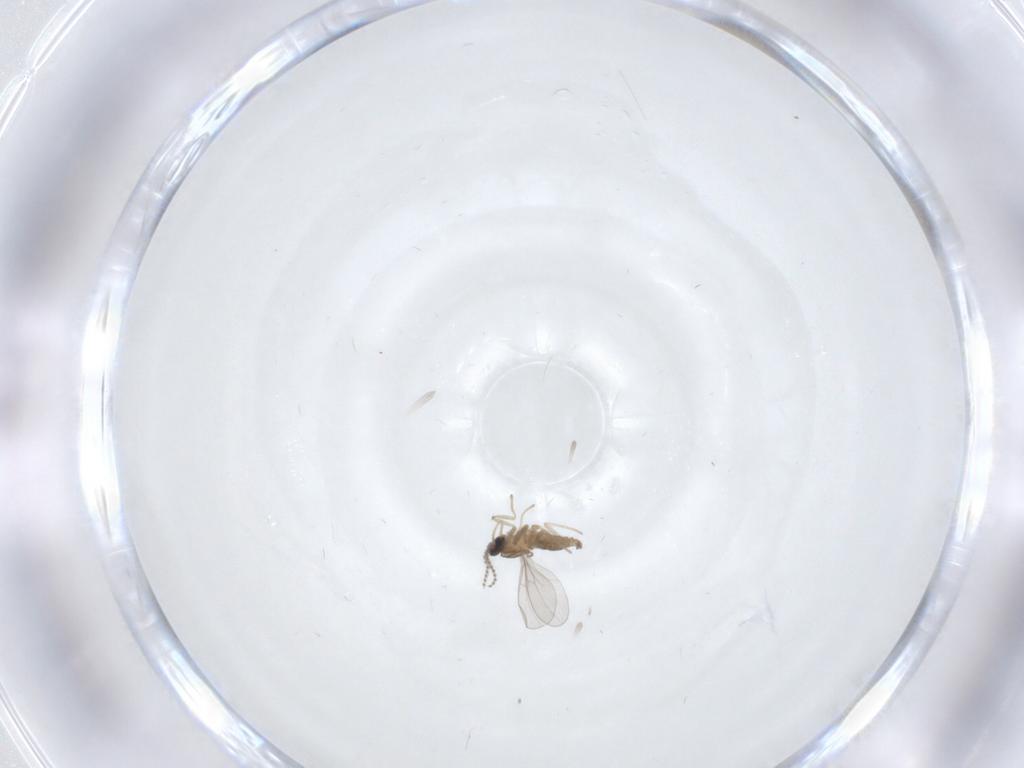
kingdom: Animalia
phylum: Arthropoda
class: Insecta
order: Diptera
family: Cecidomyiidae
